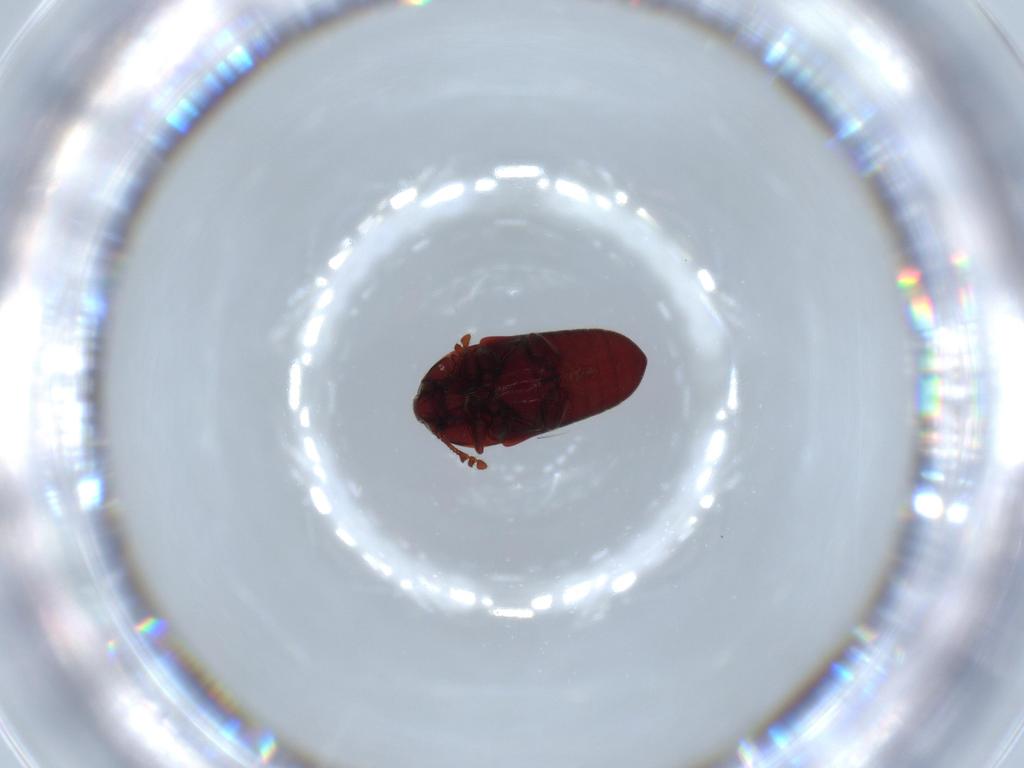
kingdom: Animalia
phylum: Arthropoda
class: Insecta
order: Coleoptera
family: Throscidae
